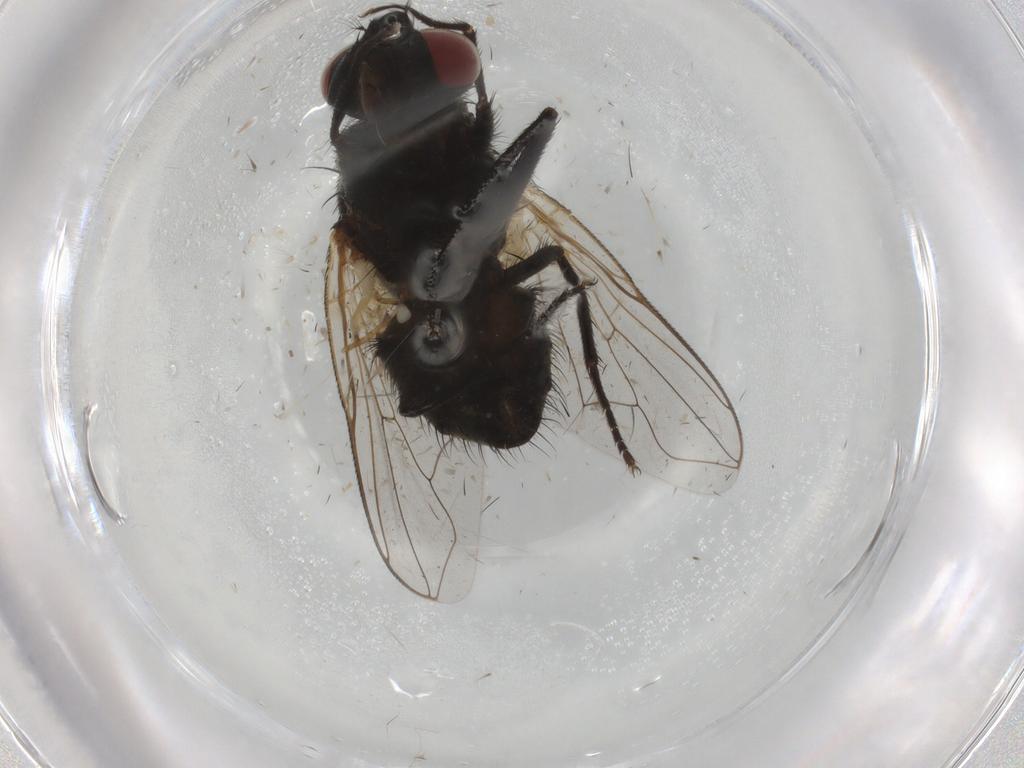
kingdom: Animalia
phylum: Arthropoda
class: Insecta
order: Diptera
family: Muscidae
